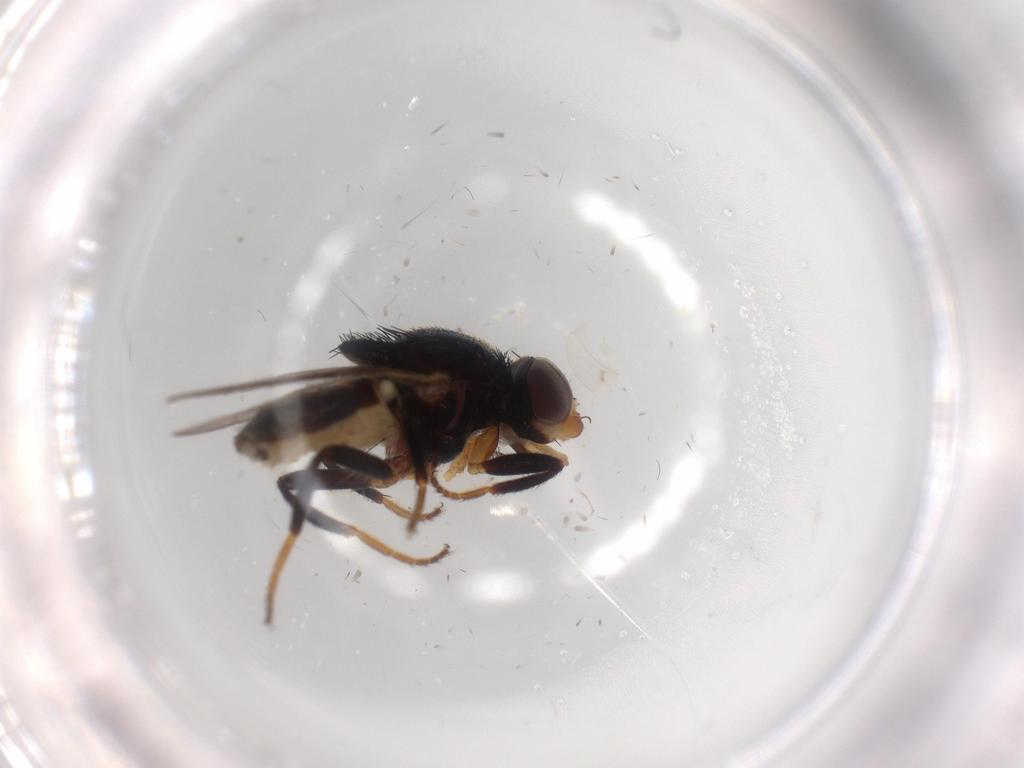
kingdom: Animalia
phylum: Arthropoda
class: Insecta
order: Diptera
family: Chloropidae
